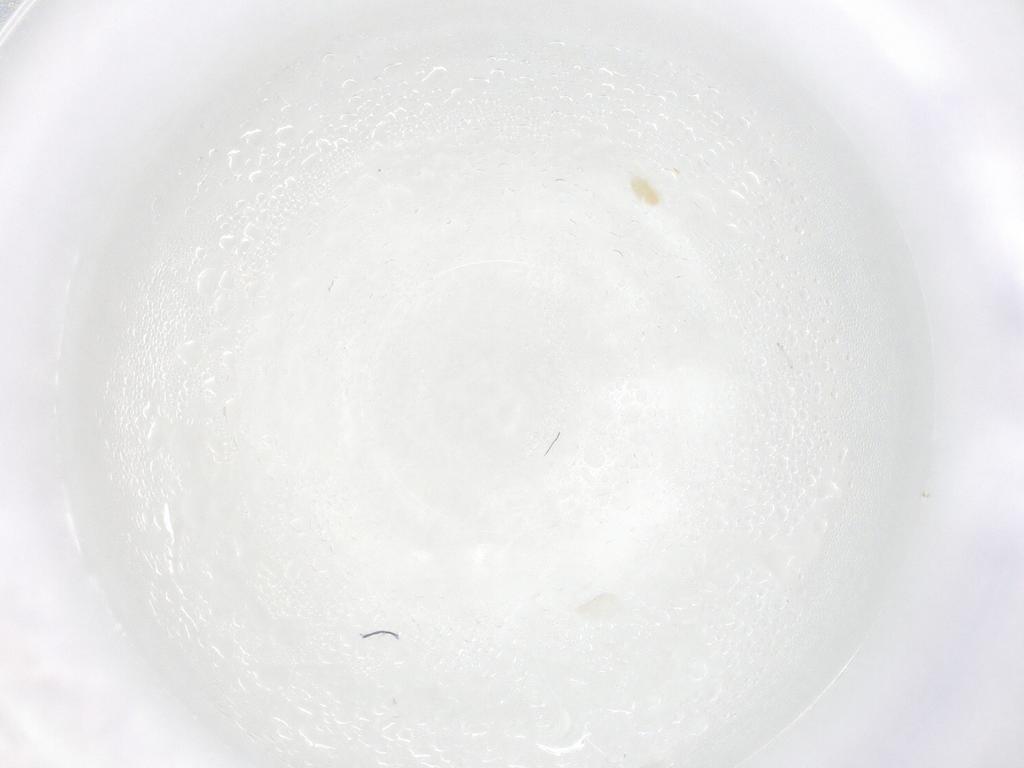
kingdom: Animalia
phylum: Arthropoda
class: Arachnida
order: Trombidiformes
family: Eupodidae
